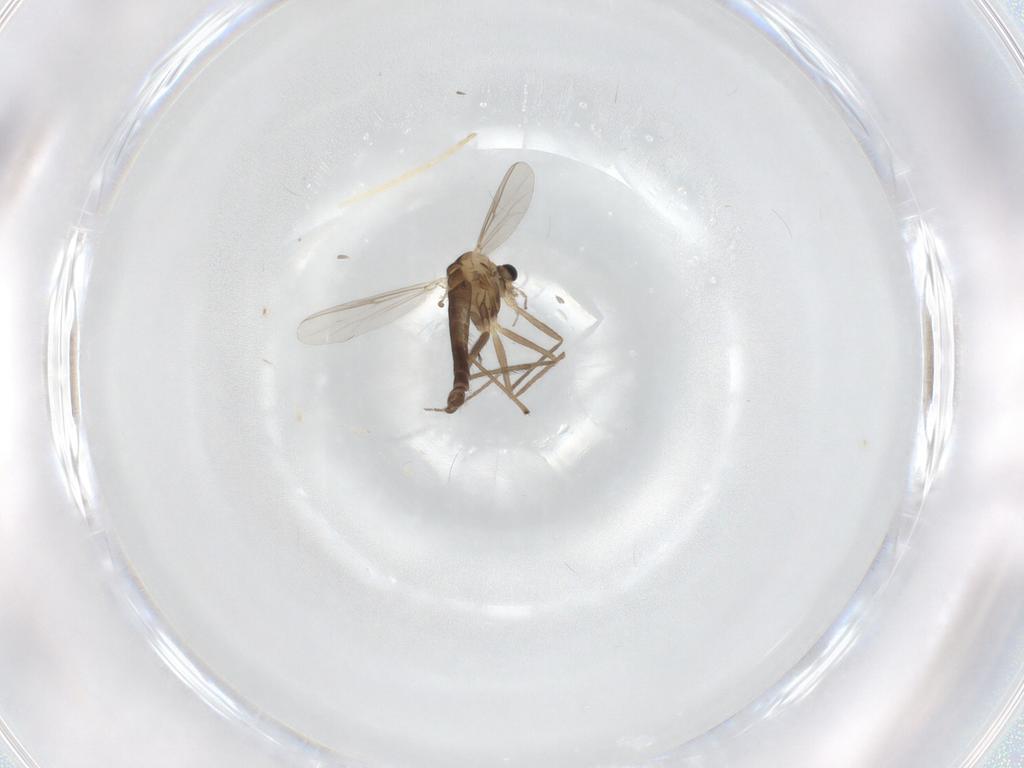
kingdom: Animalia
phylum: Arthropoda
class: Insecta
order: Diptera
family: Chironomidae
